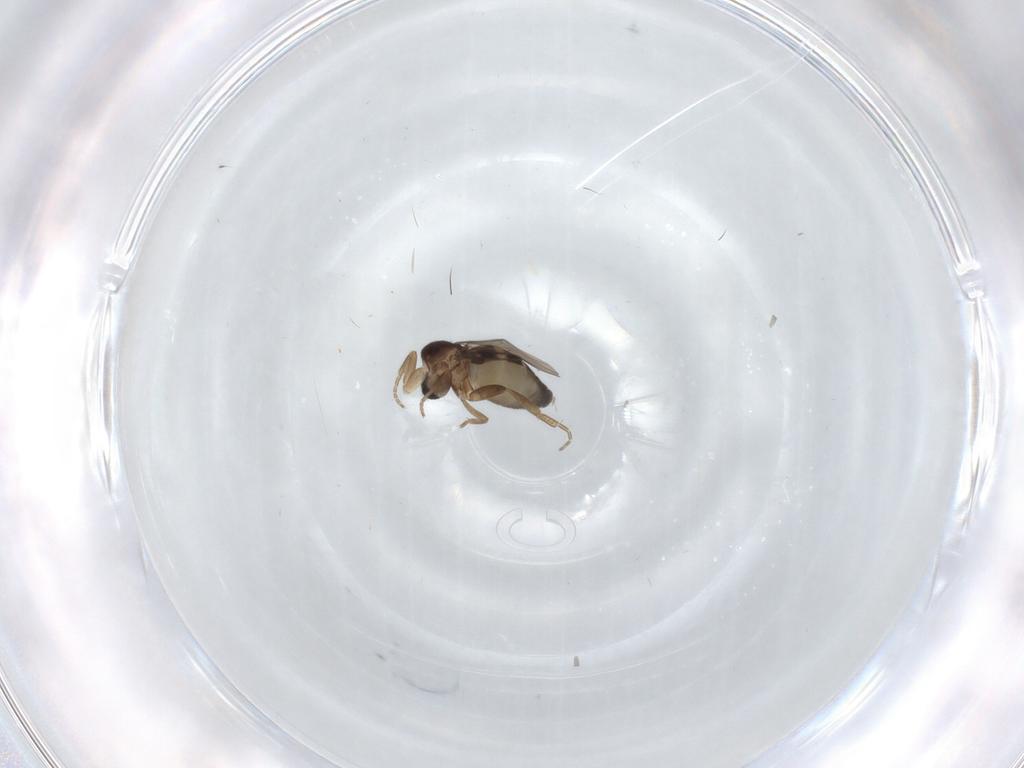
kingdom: Animalia
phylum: Arthropoda
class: Insecta
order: Diptera
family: Phoridae
